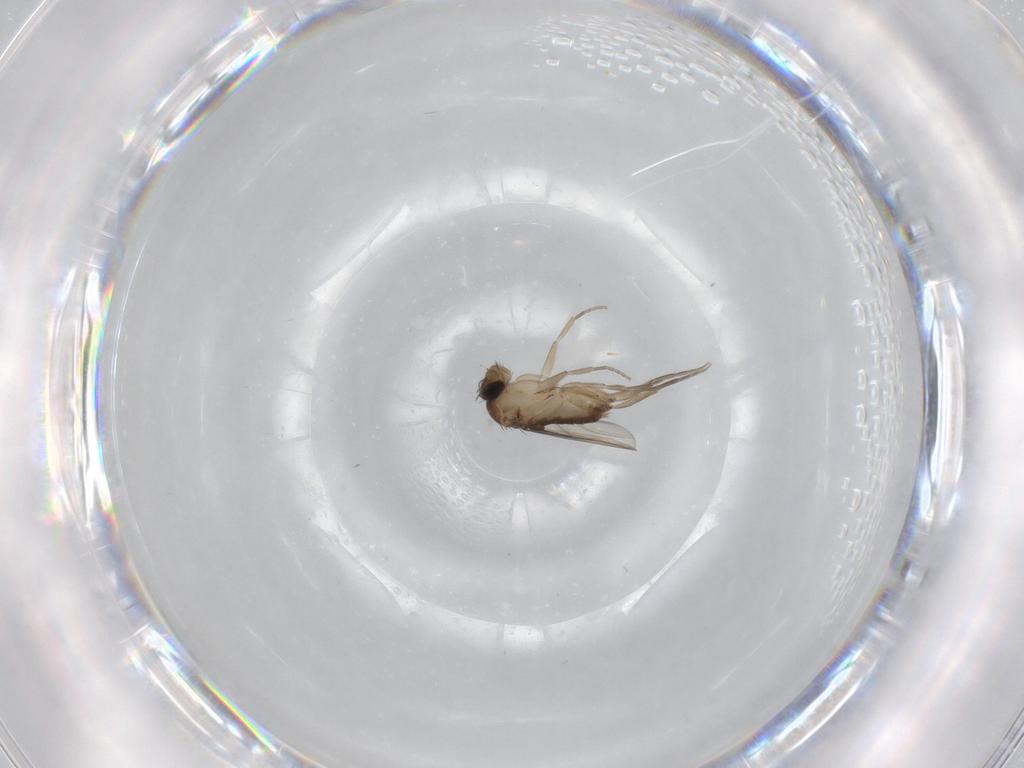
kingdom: Animalia
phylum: Arthropoda
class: Insecta
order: Diptera
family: Phoridae
